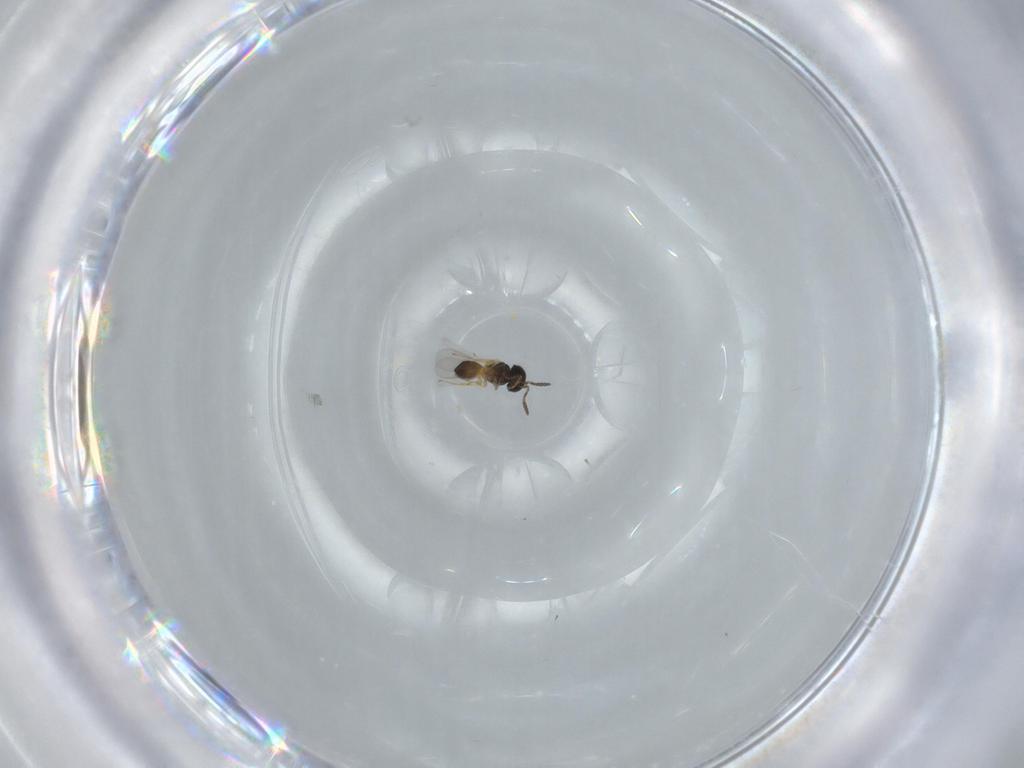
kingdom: Animalia
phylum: Arthropoda
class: Insecta
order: Hymenoptera
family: Scelionidae
